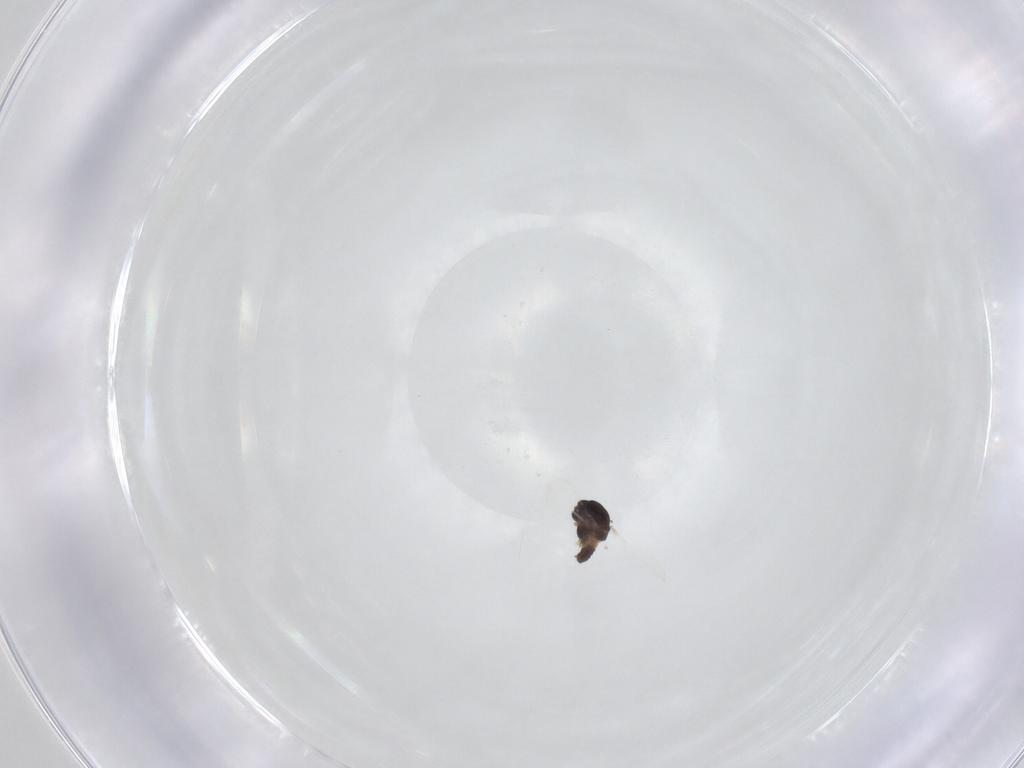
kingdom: Animalia
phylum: Arthropoda
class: Insecta
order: Diptera
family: Chironomidae
